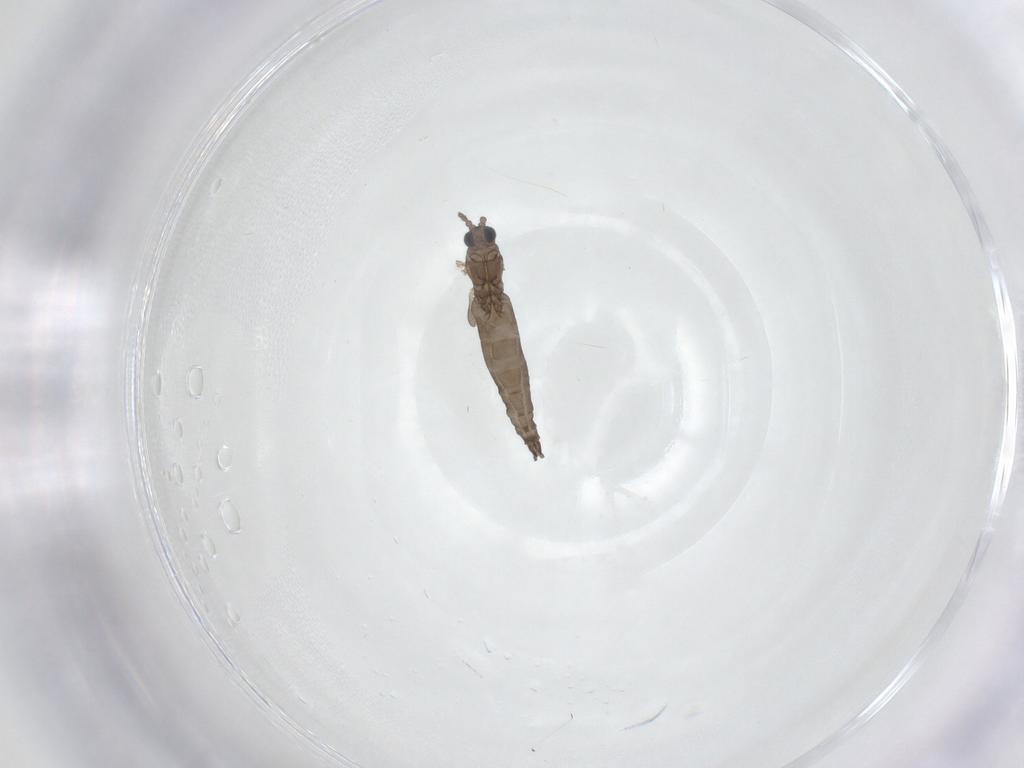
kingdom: Animalia
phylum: Arthropoda
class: Insecta
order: Diptera
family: Sciaridae
